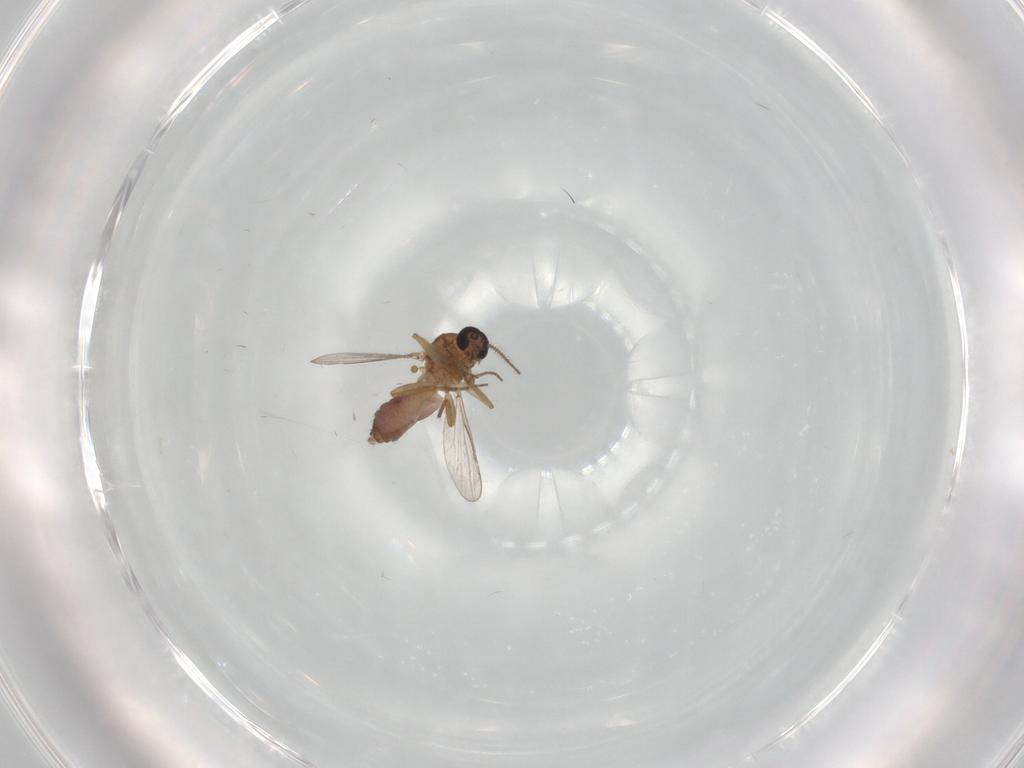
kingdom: Animalia
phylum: Arthropoda
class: Insecta
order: Diptera
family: Ceratopogonidae
